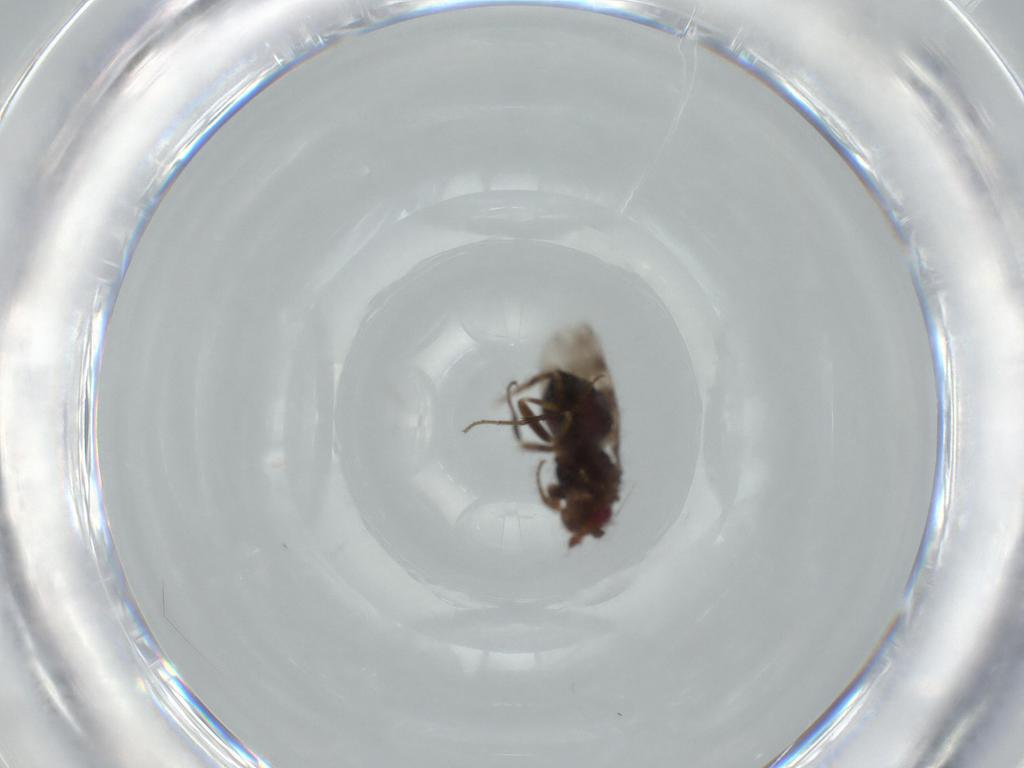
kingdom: Animalia
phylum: Arthropoda
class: Insecta
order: Diptera
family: Sphaeroceridae
